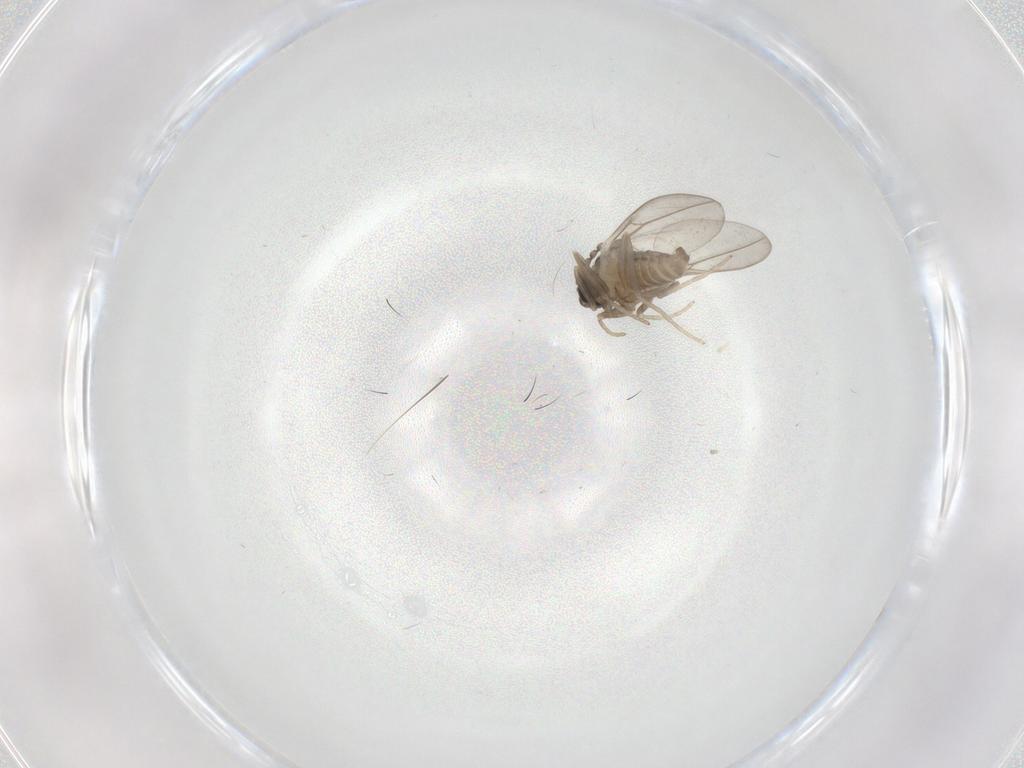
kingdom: Animalia
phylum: Arthropoda
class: Insecta
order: Diptera
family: Cecidomyiidae
